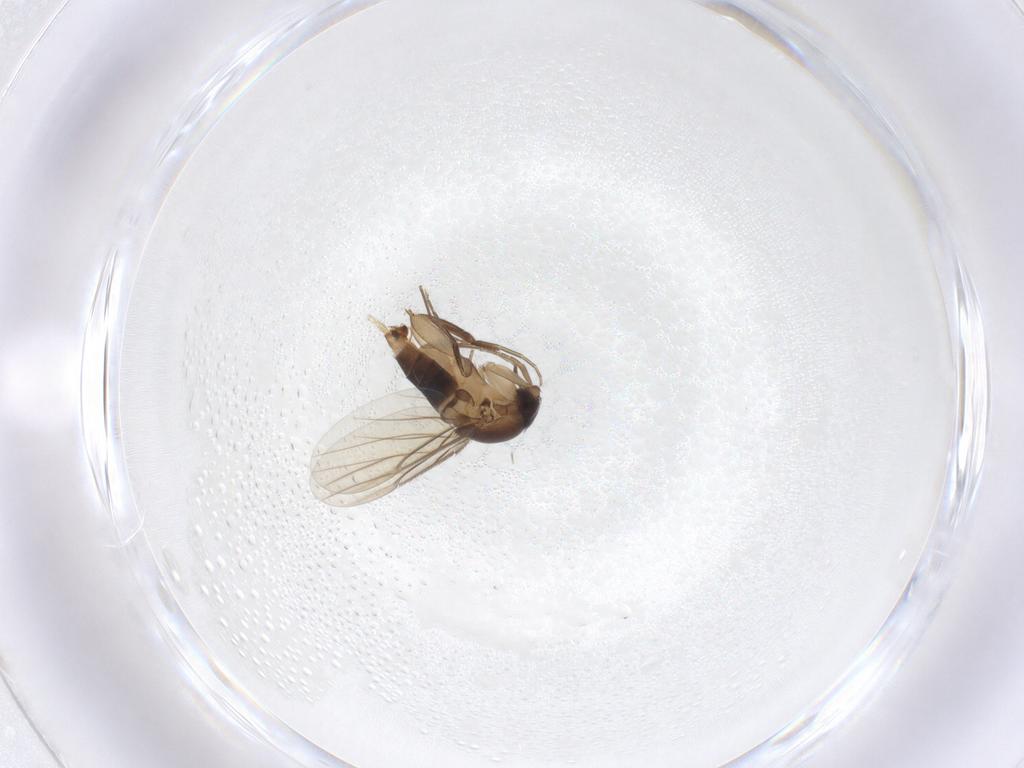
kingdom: Animalia
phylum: Arthropoda
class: Insecta
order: Diptera
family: Phoridae
